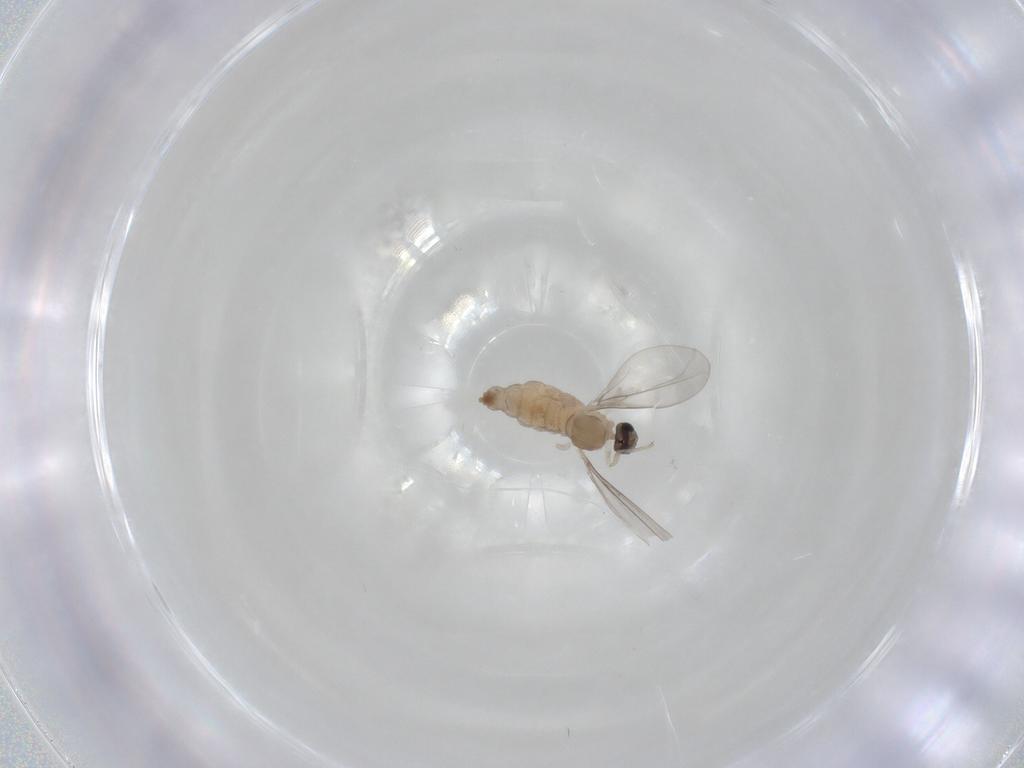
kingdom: Animalia
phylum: Arthropoda
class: Insecta
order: Diptera
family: Cecidomyiidae
